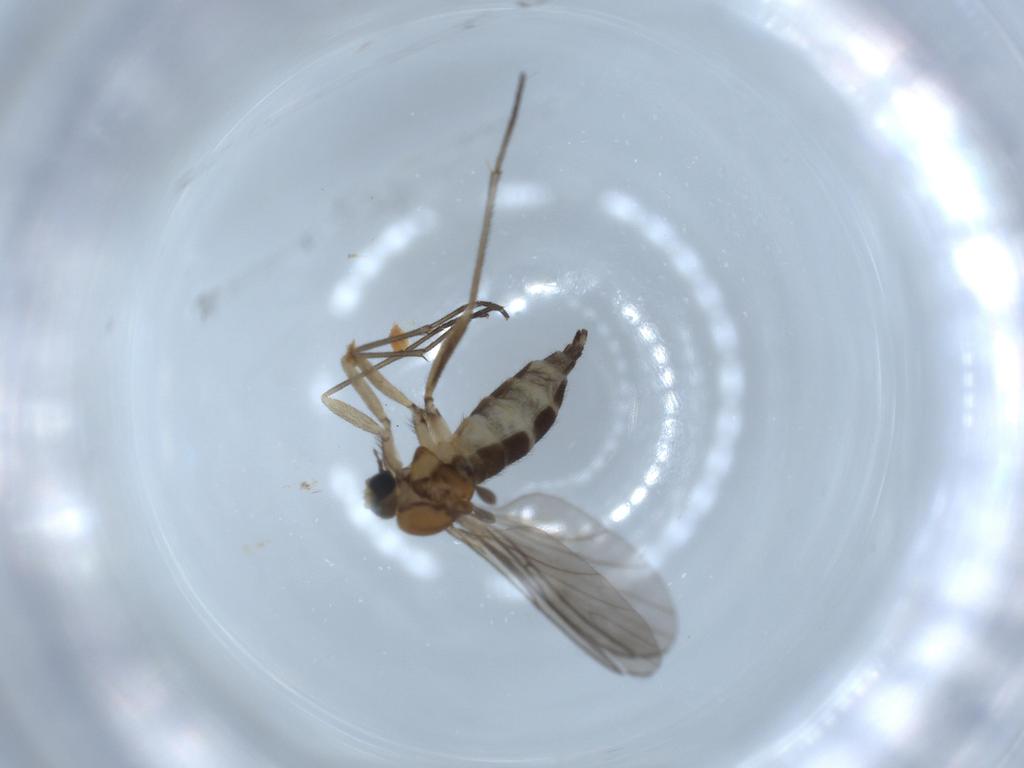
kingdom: Animalia
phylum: Arthropoda
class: Insecta
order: Diptera
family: Sciaridae
